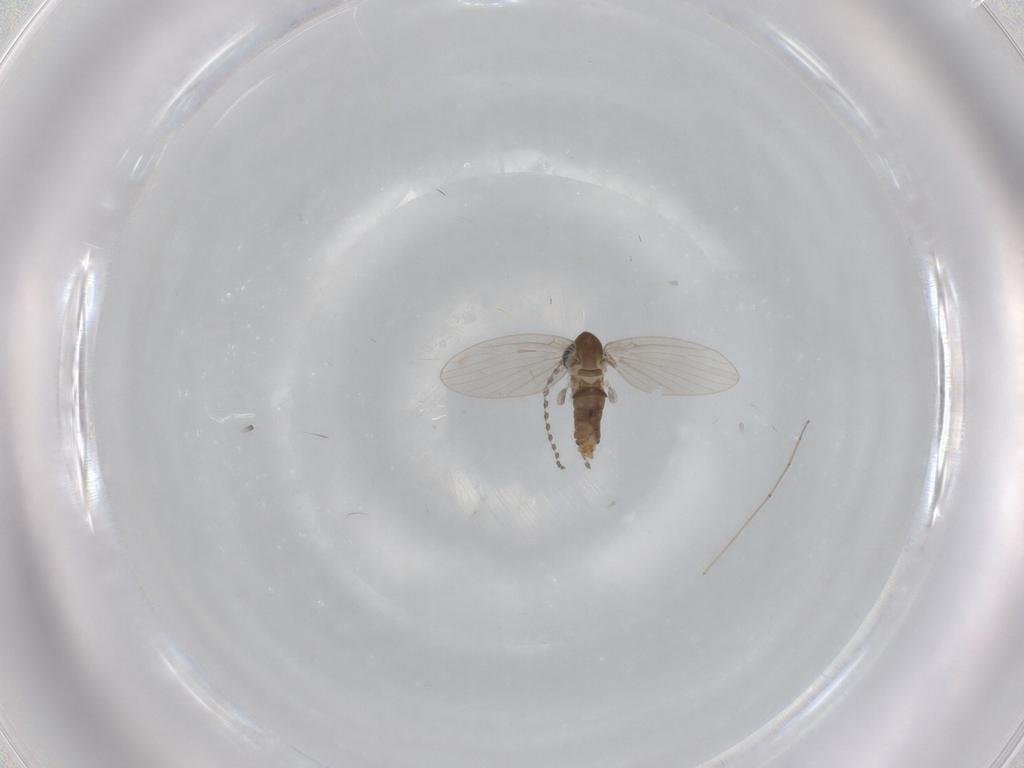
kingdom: Animalia
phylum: Arthropoda
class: Insecta
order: Diptera
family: Psychodidae
